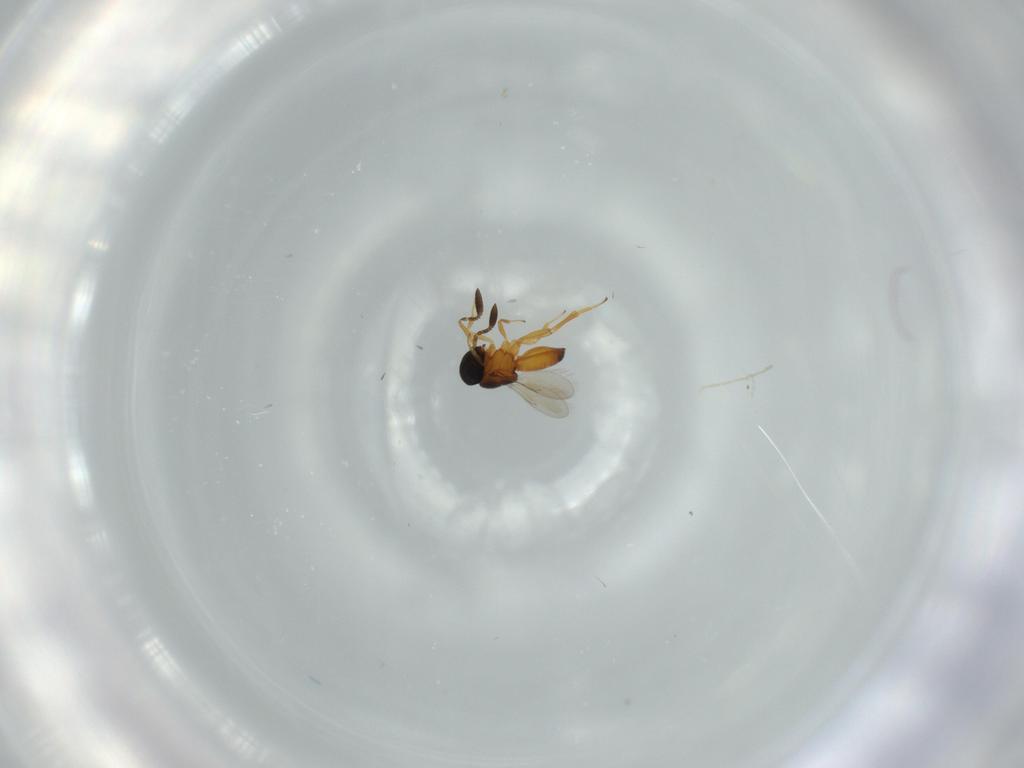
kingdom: Animalia
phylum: Arthropoda
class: Insecta
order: Hymenoptera
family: Scelionidae
